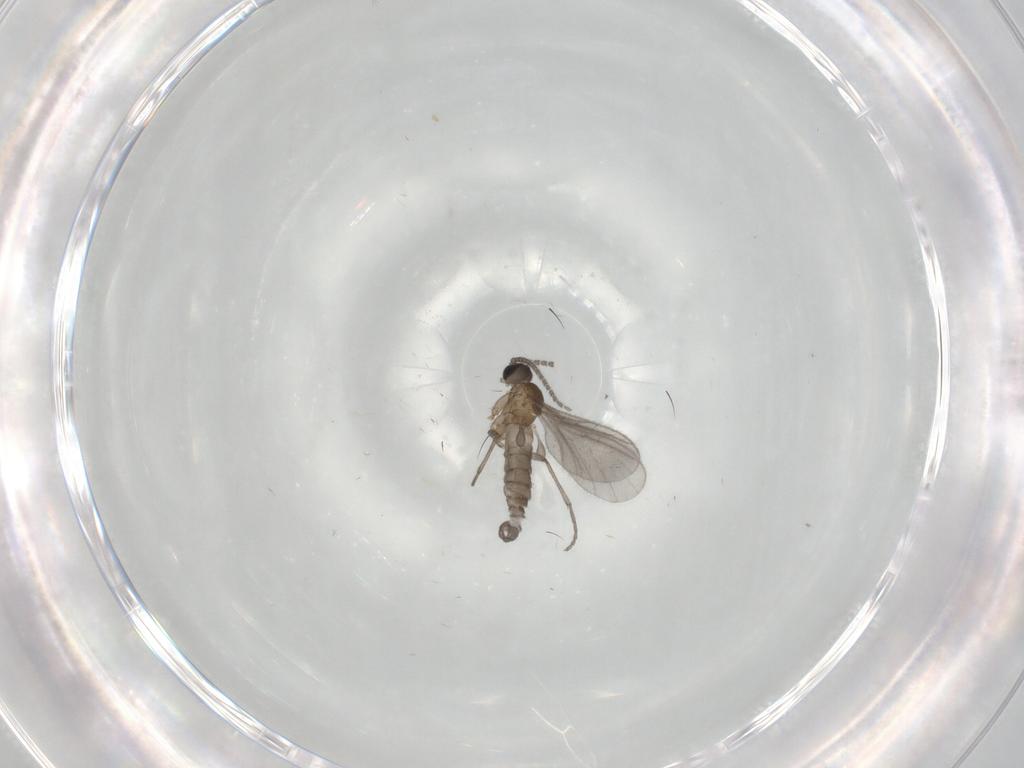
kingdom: Animalia
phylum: Arthropoda
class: Insecta
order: Diptera
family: Sciaridae
